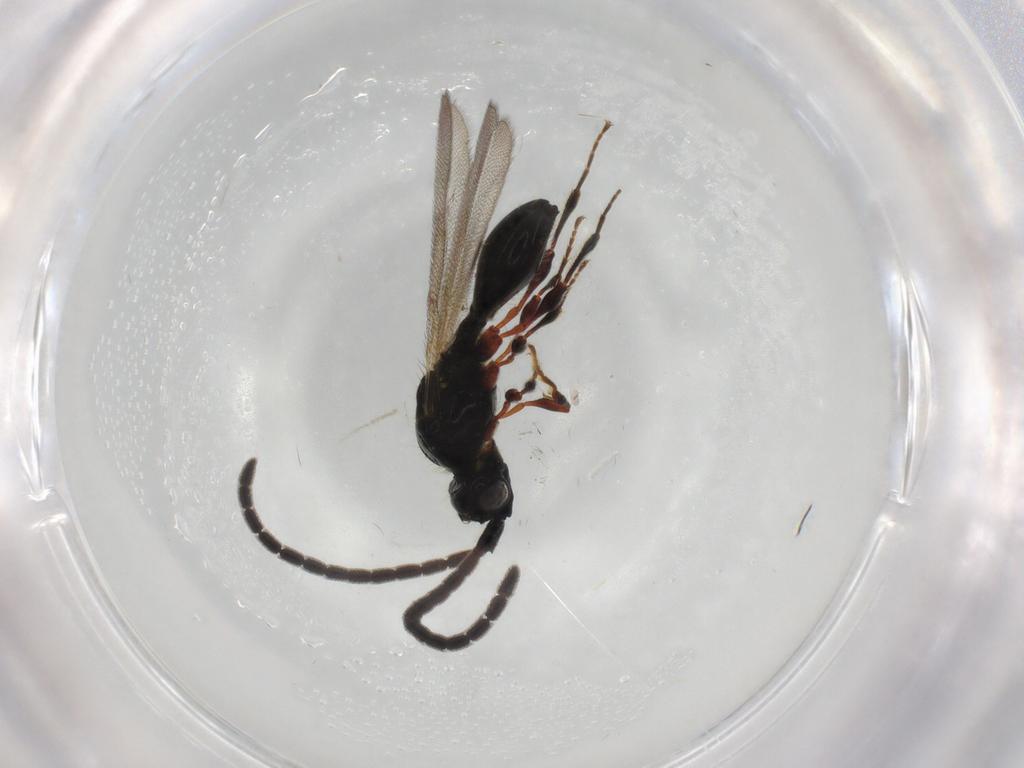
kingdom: Animalia
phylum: Arthropoda
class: Insecta
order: Hymenoptera
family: Diapriidae
